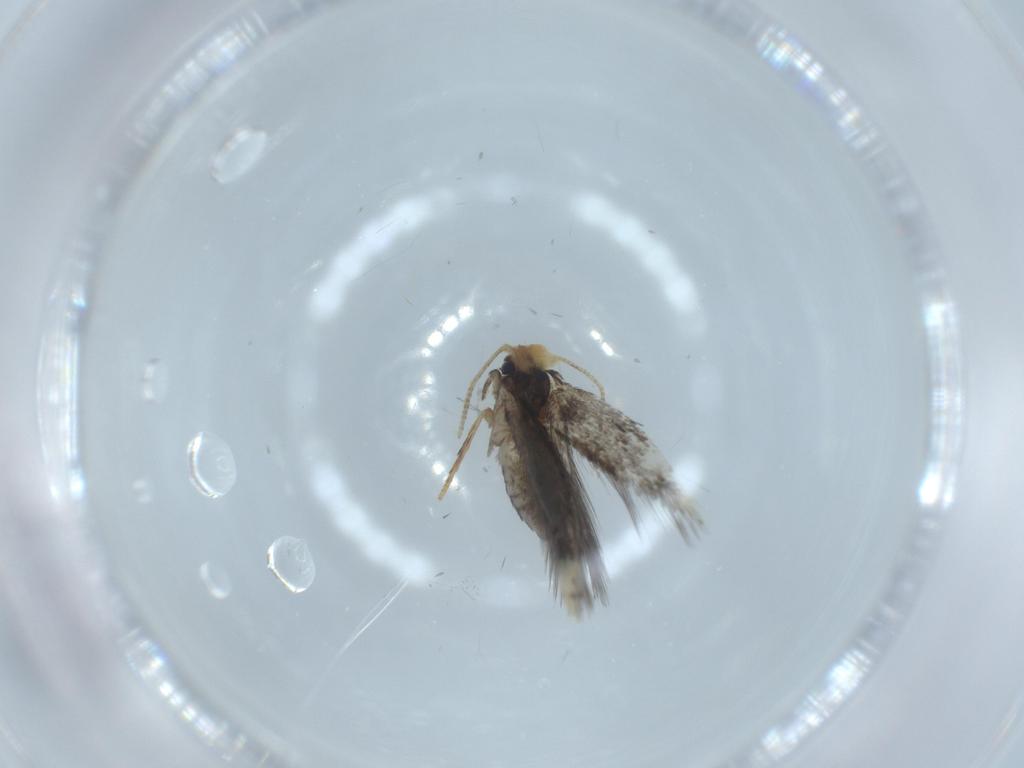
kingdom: Animalia
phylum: Arthropoda
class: Insecta
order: Lepidoptera
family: Nepticulidae
